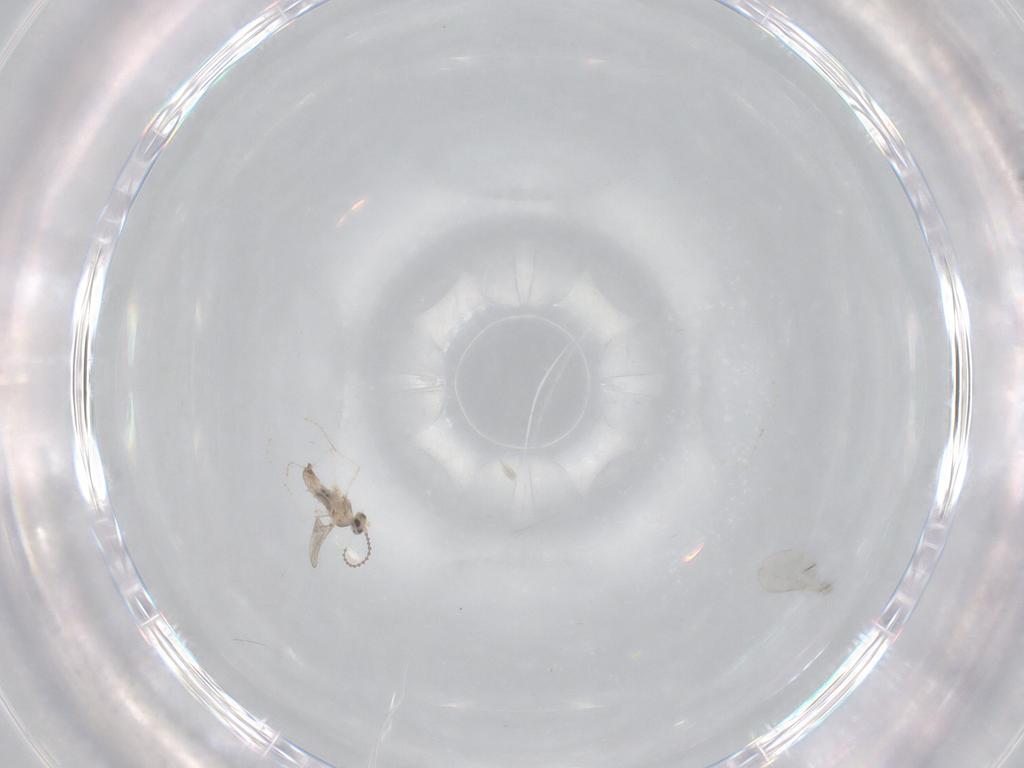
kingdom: Animalia
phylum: Arthropoda
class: Insecta
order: Diptera
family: Cecidomyiidae
